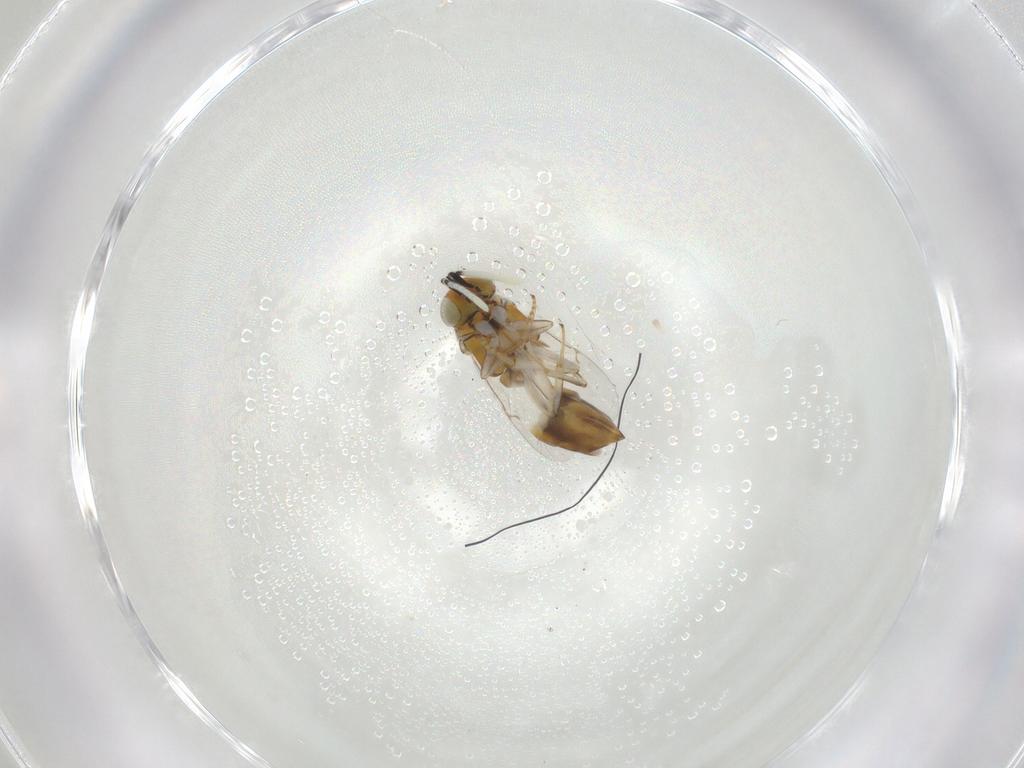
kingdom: Animalia
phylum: Arthropoda
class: Insecta
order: Hymenoptera
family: Encyrtidae
